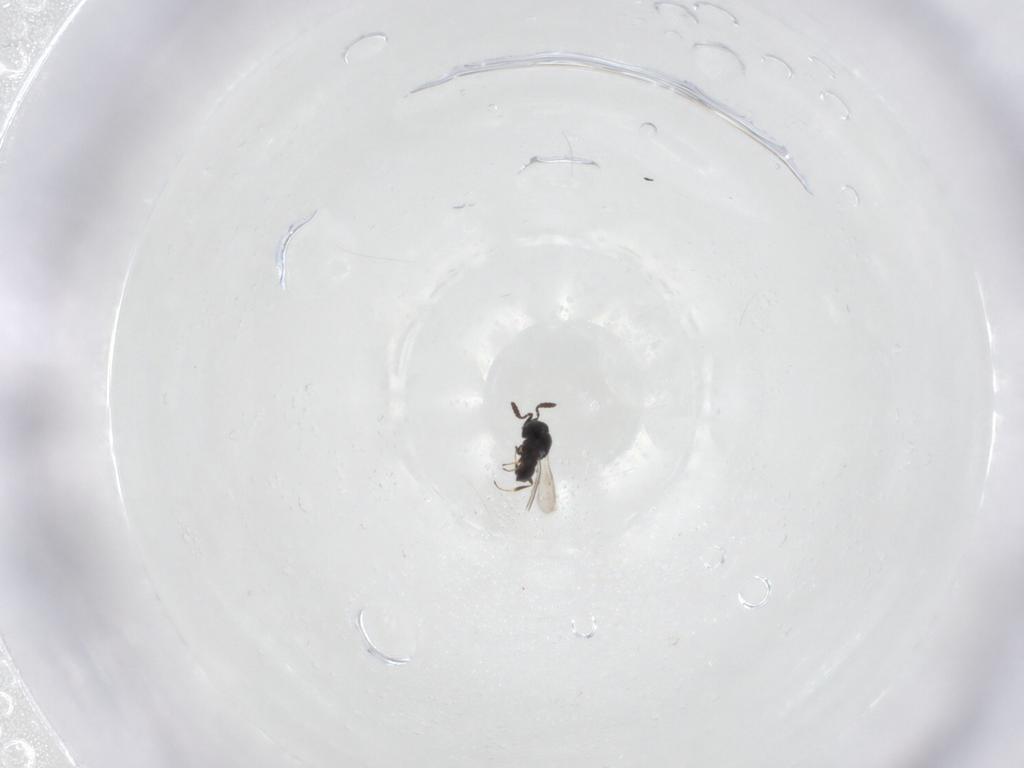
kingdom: Animalia
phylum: Arthropoda
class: Insecta
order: Hymenoptera
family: Scelionidae
